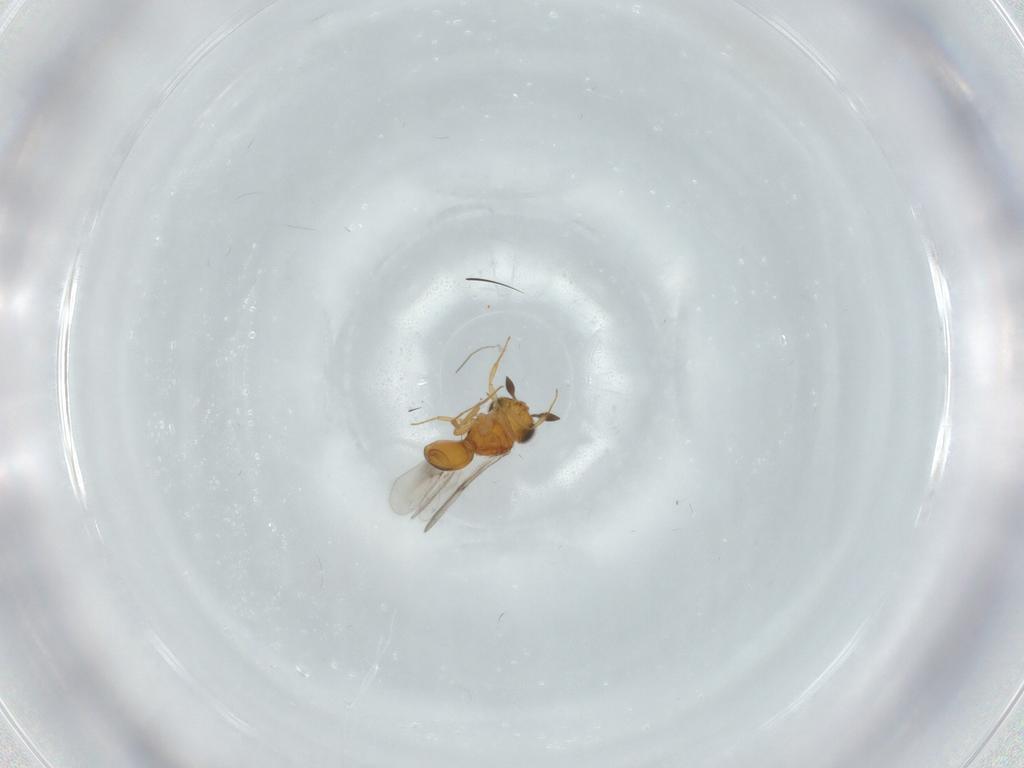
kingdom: Animalia
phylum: Arthropoda
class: Insecta
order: Hymenoptera
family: Scelionidae
